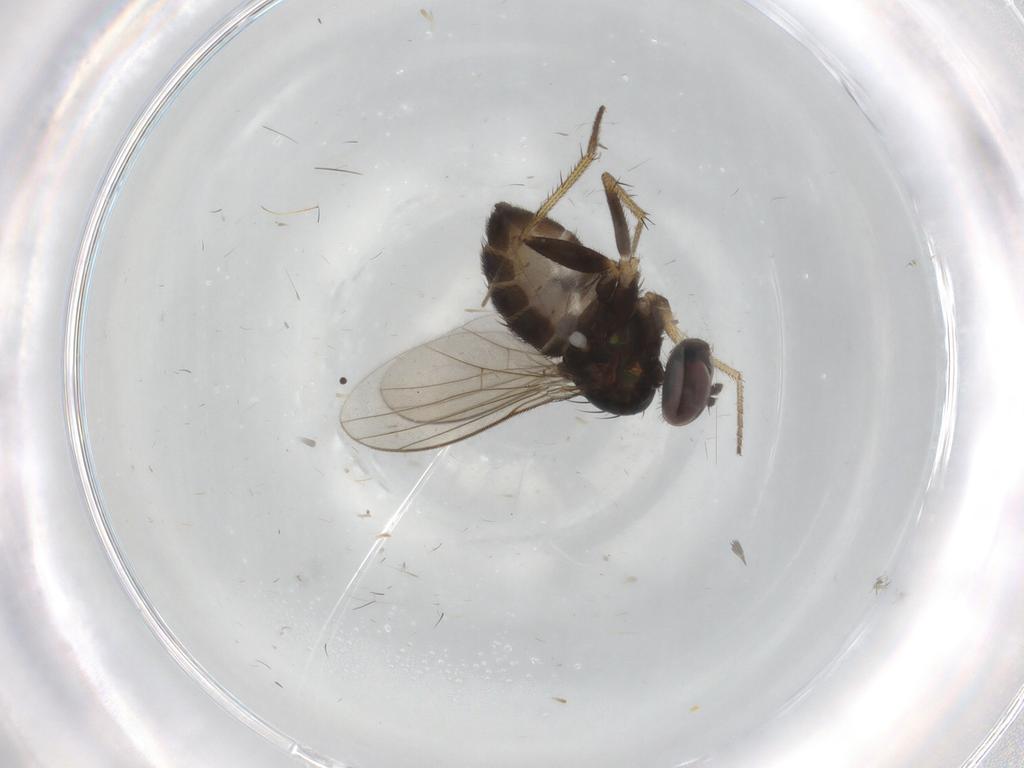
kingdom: Animalia
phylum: Arthropoda
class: Insecta
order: Diptera
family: Dolichopodidae
